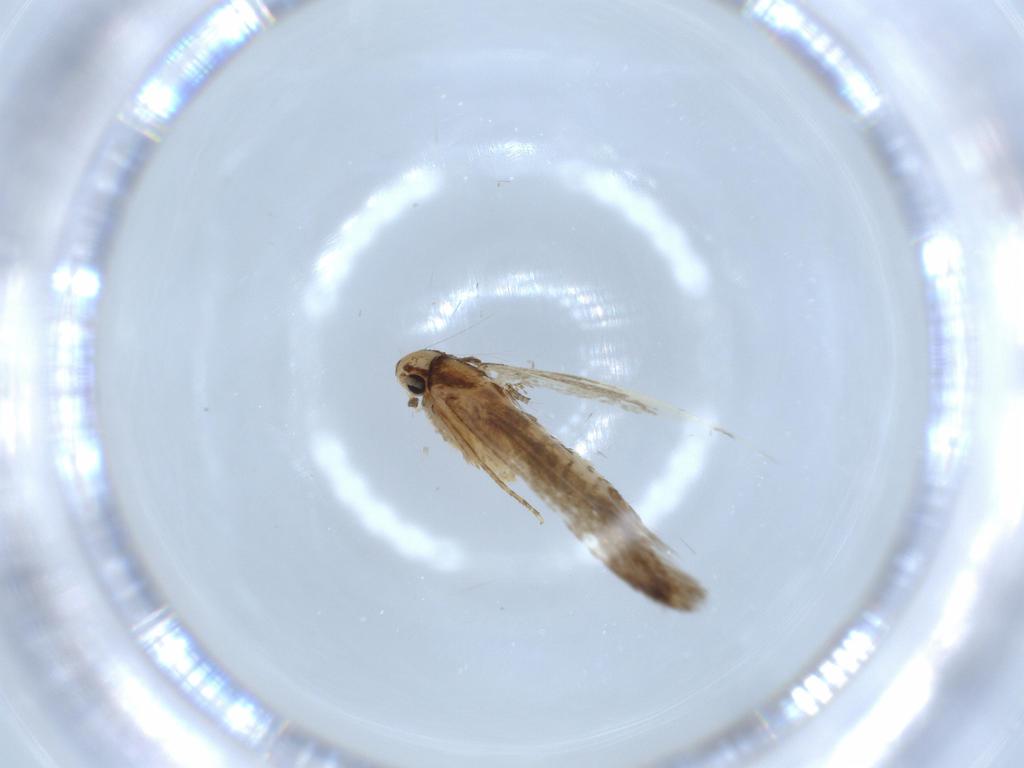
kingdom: Animalia
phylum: Arthropoda
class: Insecta
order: Lepidoptera
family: Tineidae
